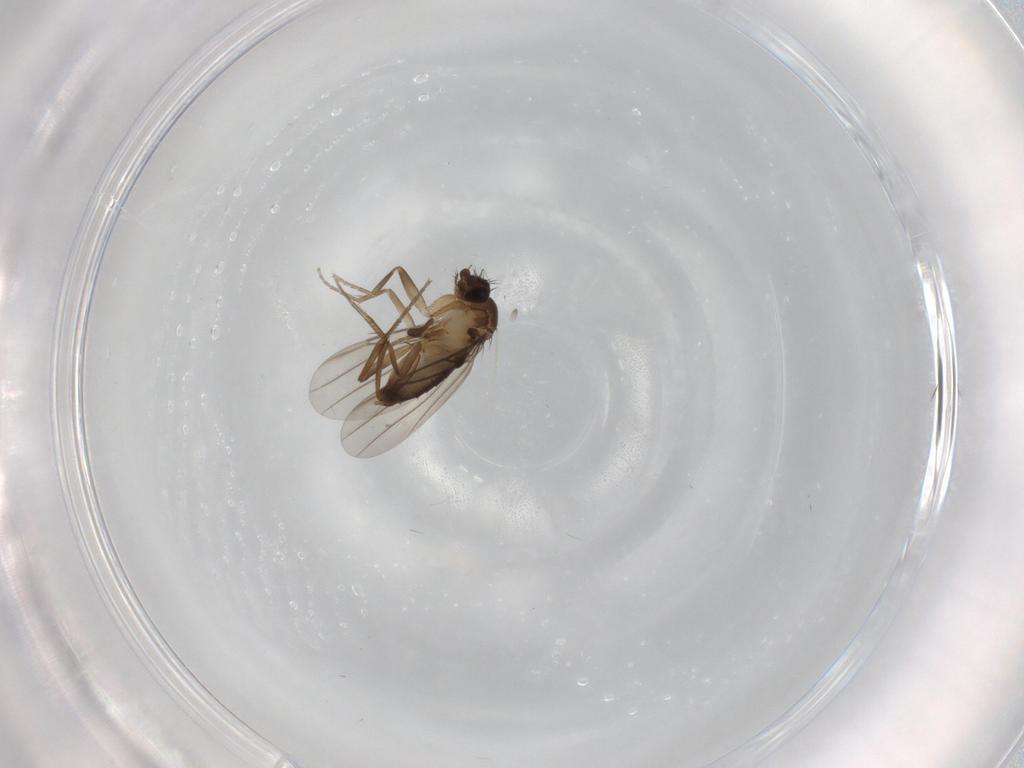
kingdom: Animalia
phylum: Arthropoda
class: Insecta
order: Diptera
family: Phoridae
